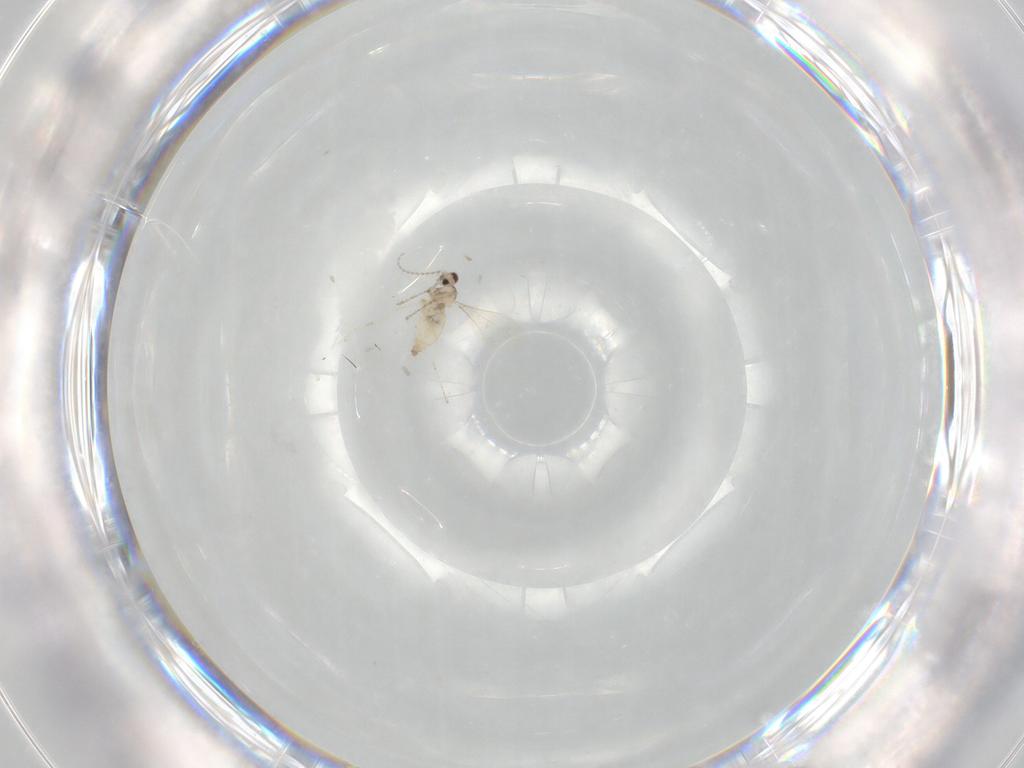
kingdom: Animalia
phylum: Arthropoda
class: Insecta
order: Diptera
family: Cecidomyiidae
